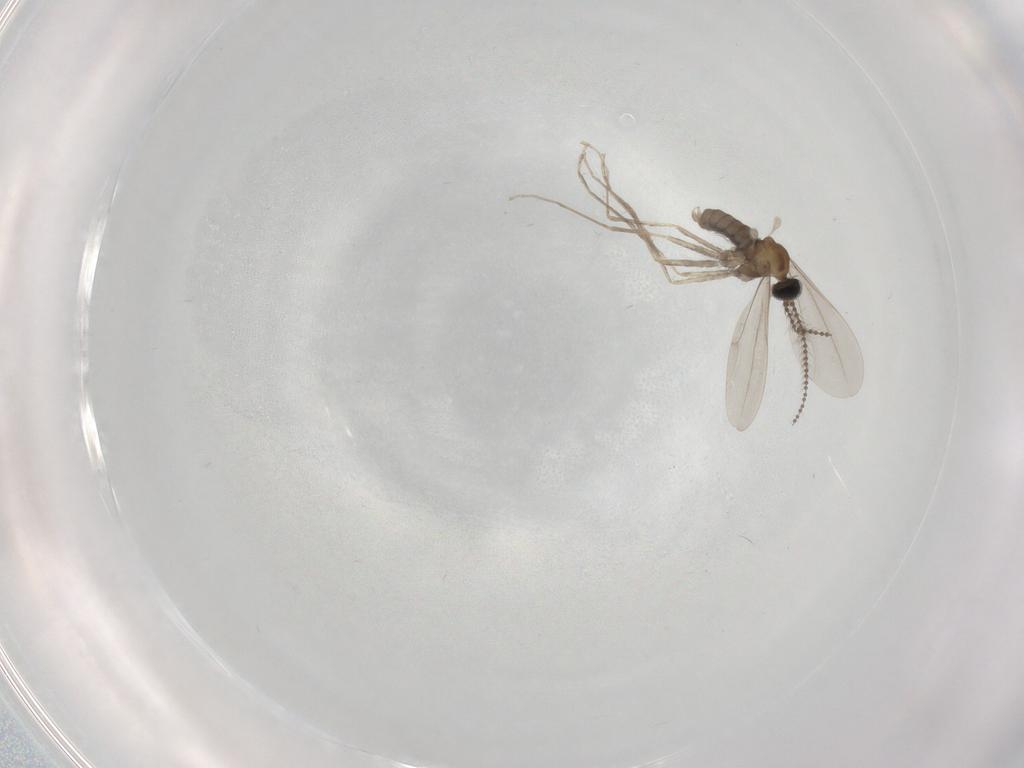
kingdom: Animalia
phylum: Arthropoda
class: Insecta
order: Diptera
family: Cecidomyiidae
